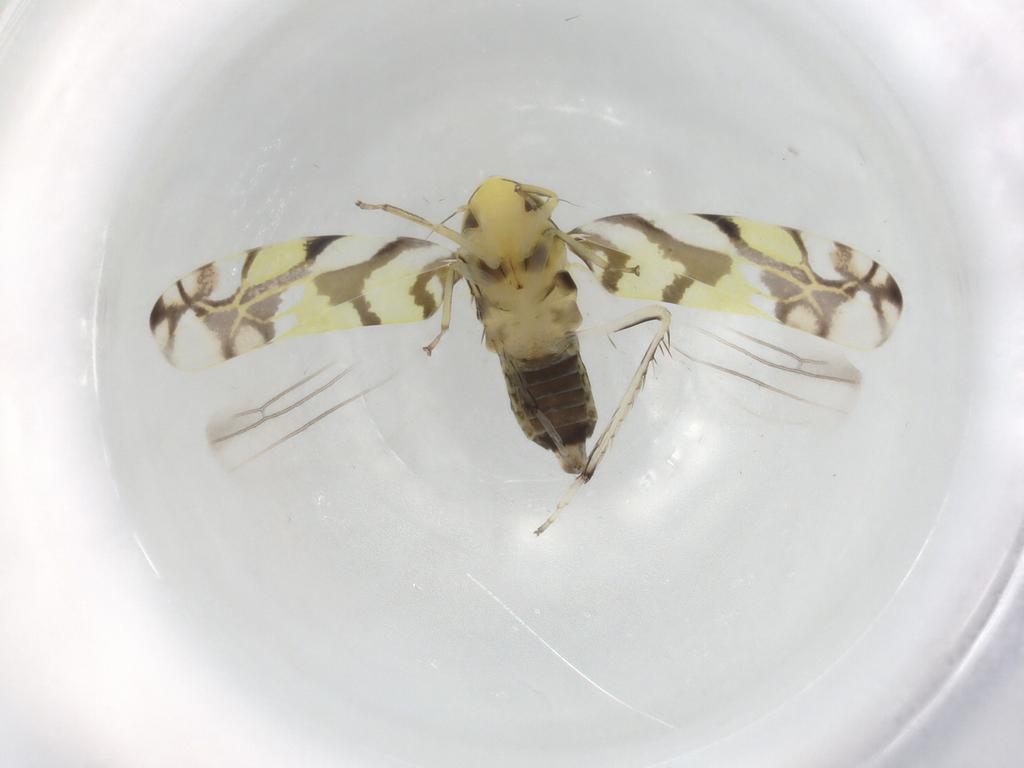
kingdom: Animalia
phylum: Arthropoda
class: Insecta
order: Hemiptera
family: Cicadellidae
